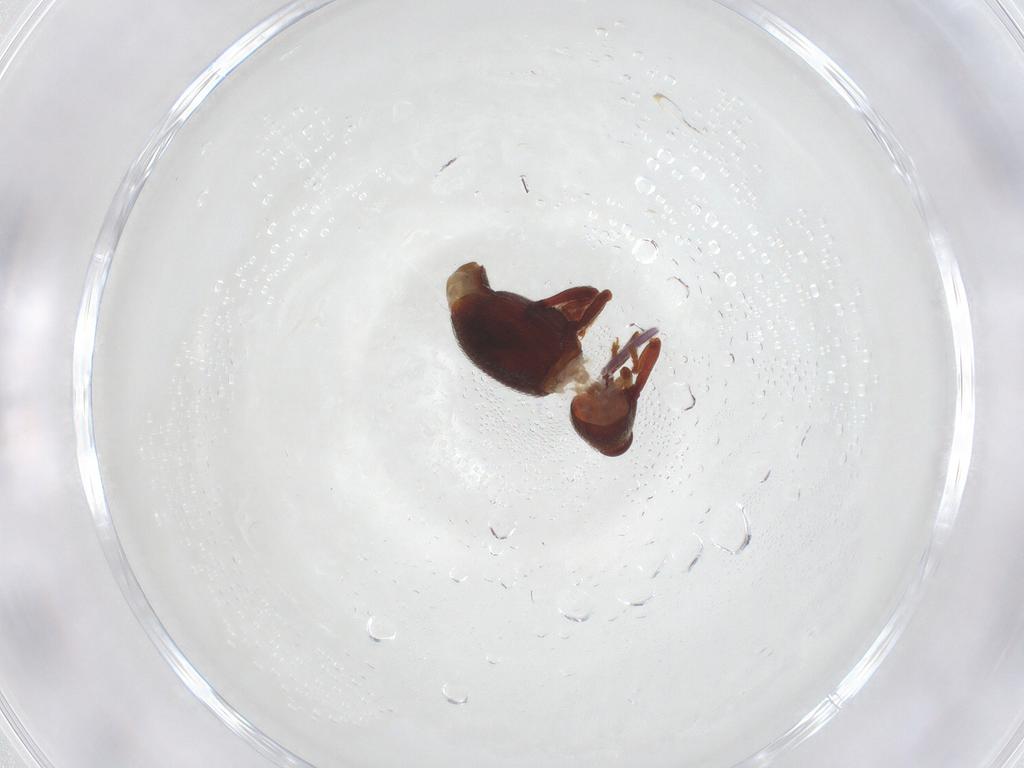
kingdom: Animalia
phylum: Arthropoda
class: Insecta
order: Coleoptera
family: Curculionidae
